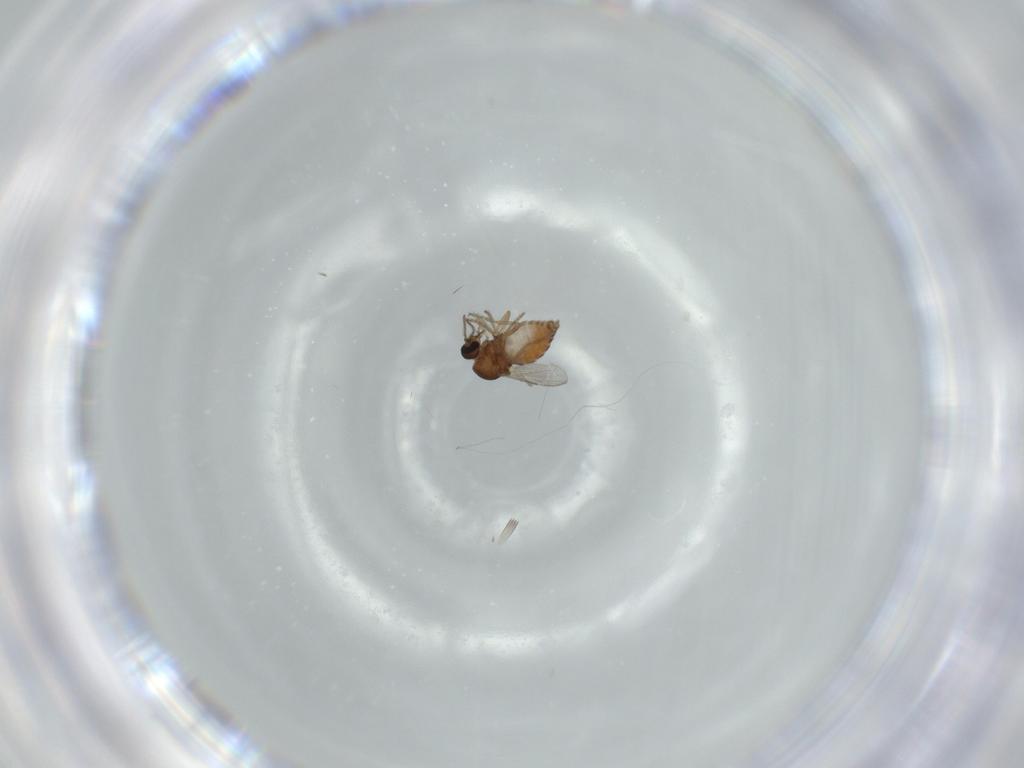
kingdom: Animalia
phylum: Arthropoda
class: Insecta
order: Diptera
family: Ceratopogonidae
